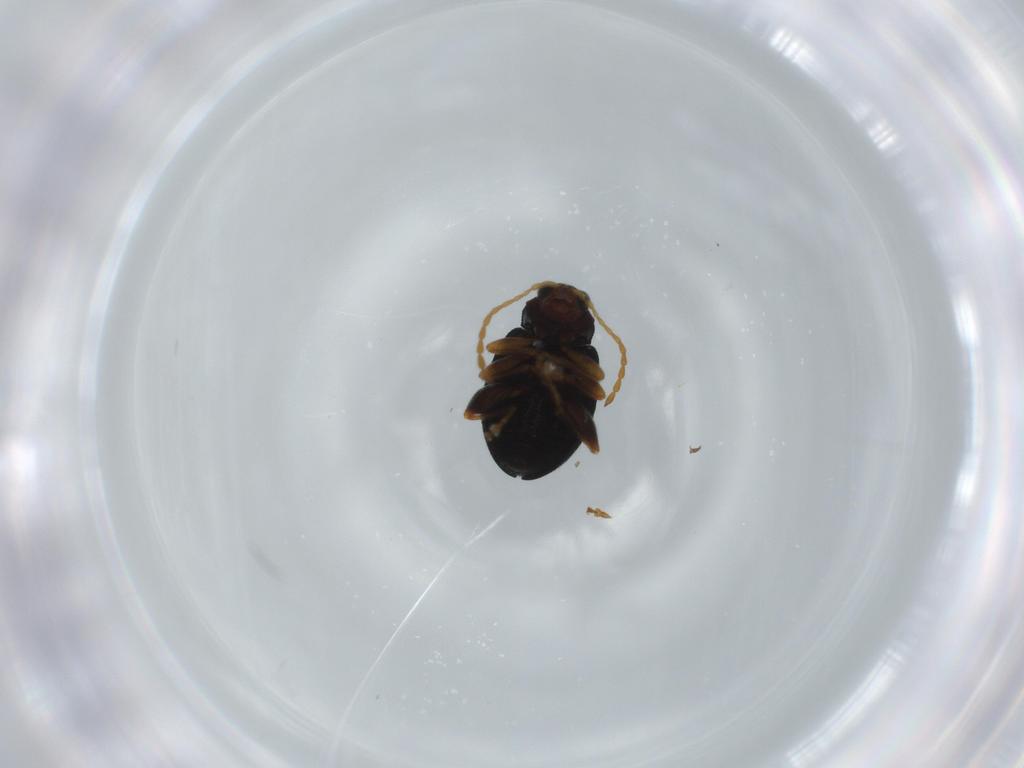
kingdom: Animalia
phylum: Arthropoda
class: Insecta
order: Coleoptera
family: Chrysomelidae
